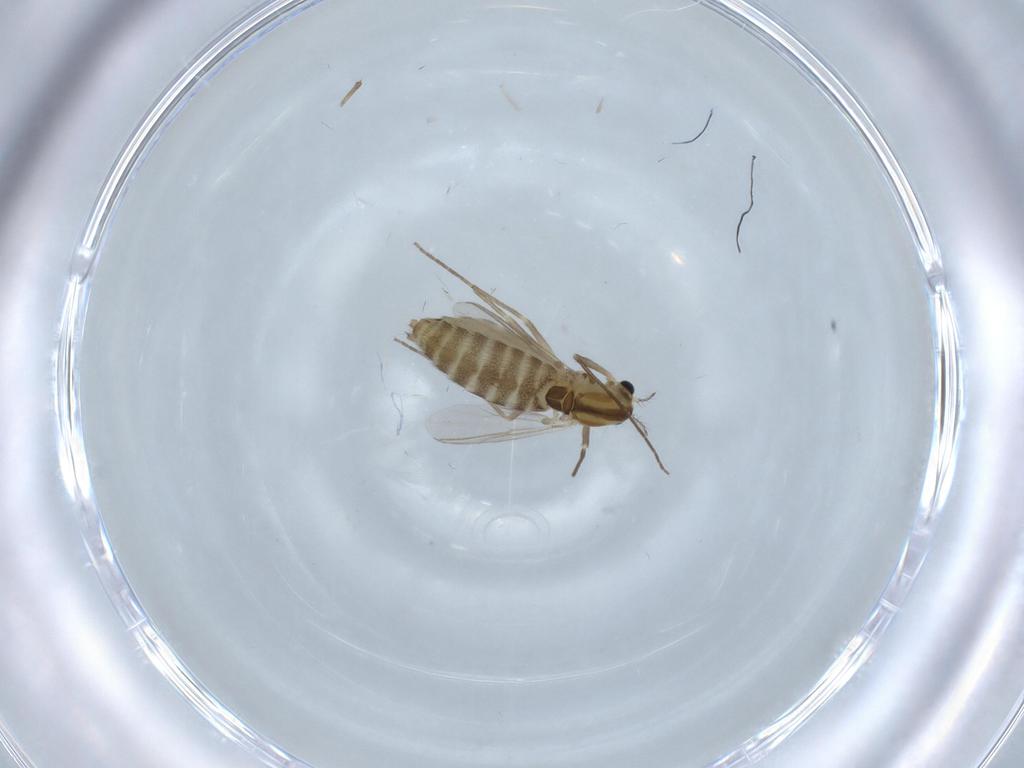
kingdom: Animalia
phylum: Arthropoda
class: Insecta
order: Diptera
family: Chironomidae
